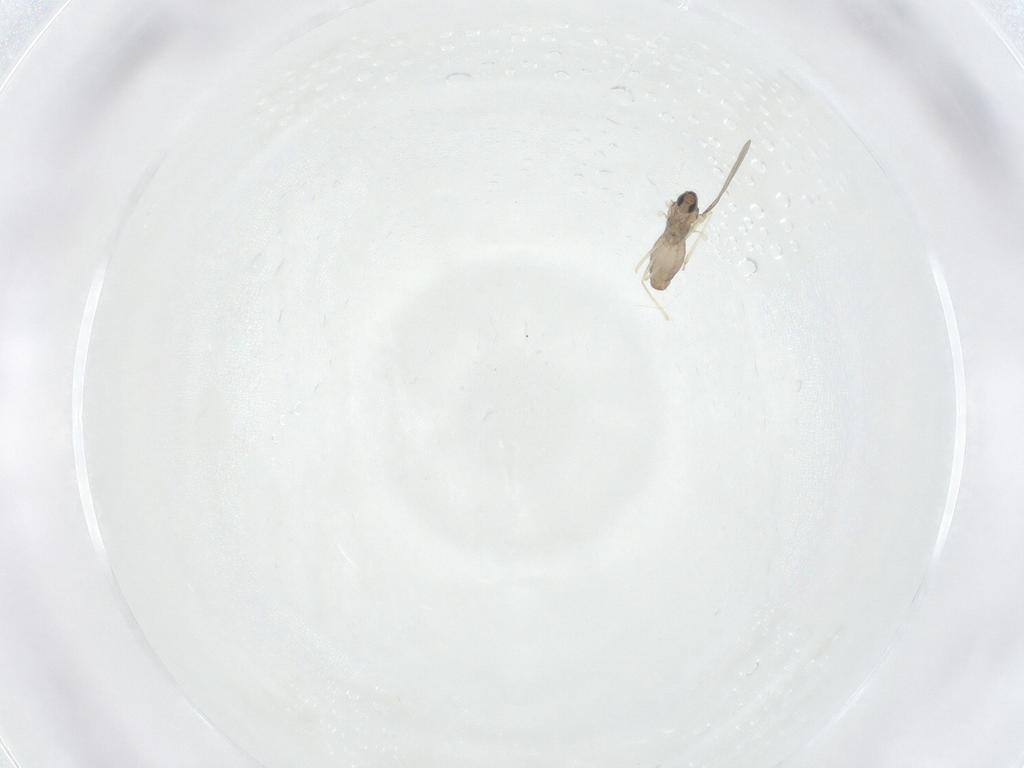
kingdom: Animalia
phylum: Arthropoda
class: Insecta
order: Diptera
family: Ceratopogonidae
